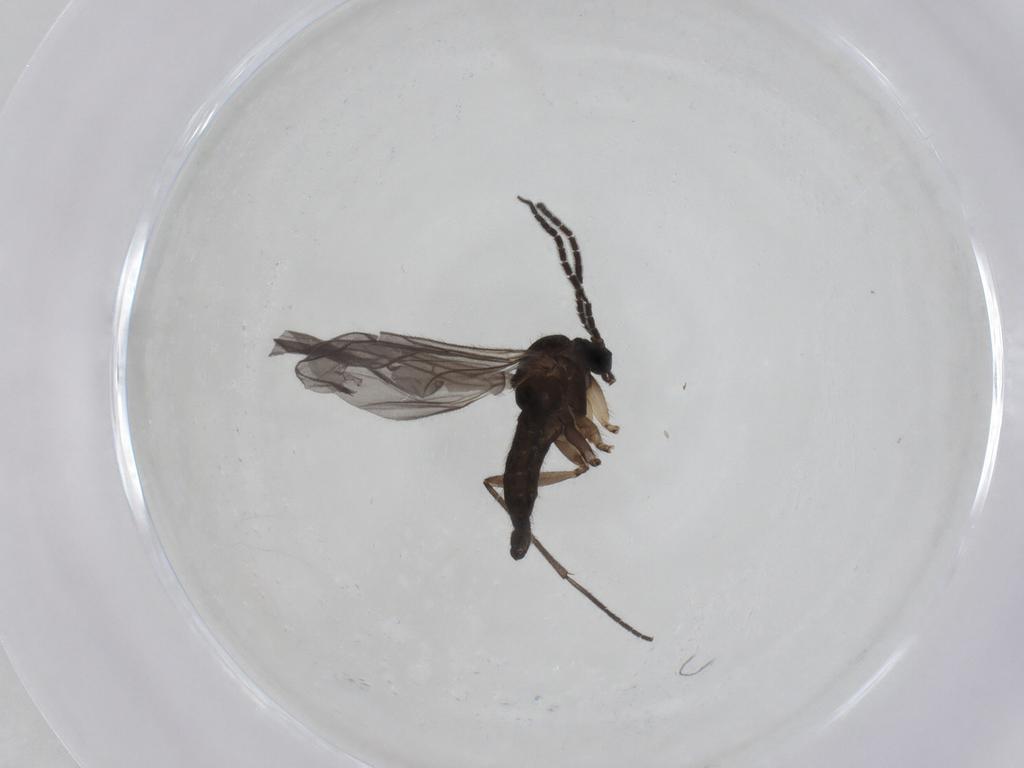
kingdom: Animalia
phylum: Arthropoda
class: Insecta
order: Diptera
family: Sciaridae
